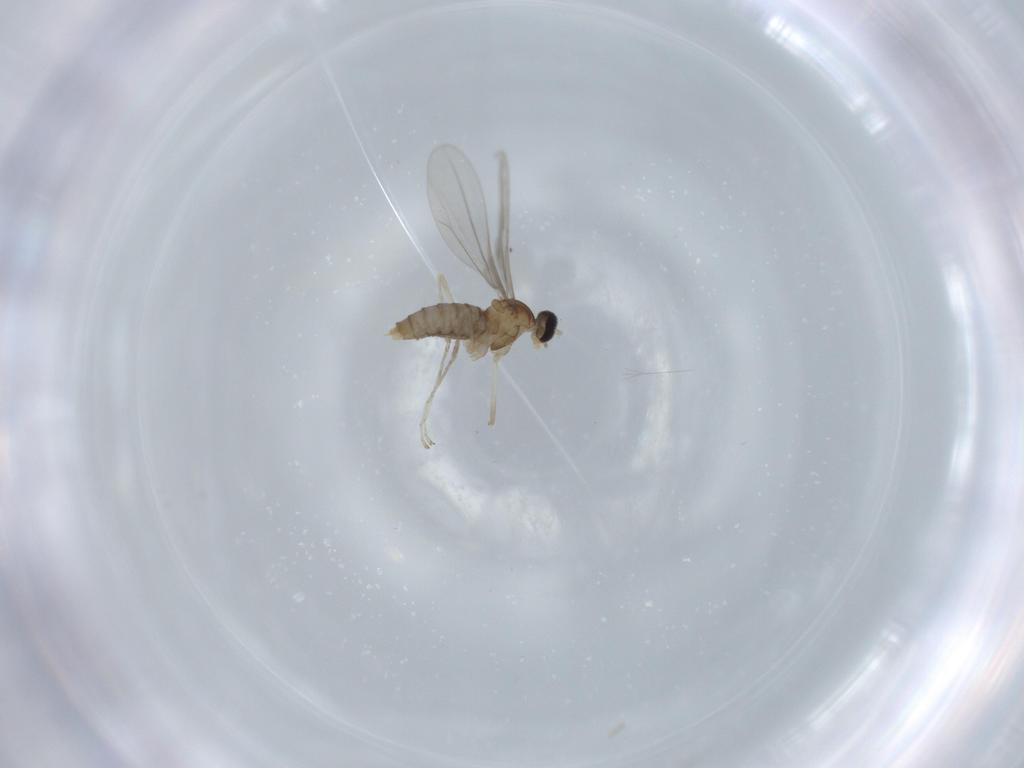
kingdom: Animalia
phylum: Arthropoda
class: Insecta
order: Diptera
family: Cecidomyiidae
